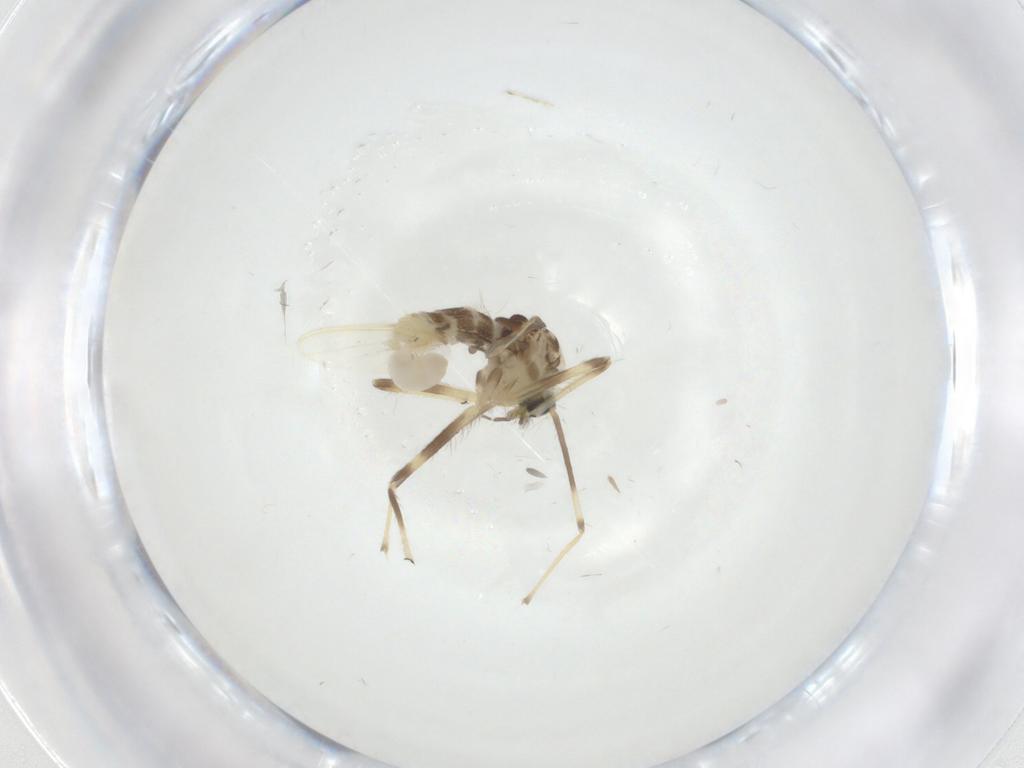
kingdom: Animalia
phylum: Arthropoda
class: Insecta
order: Diptera
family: Chironomidae
